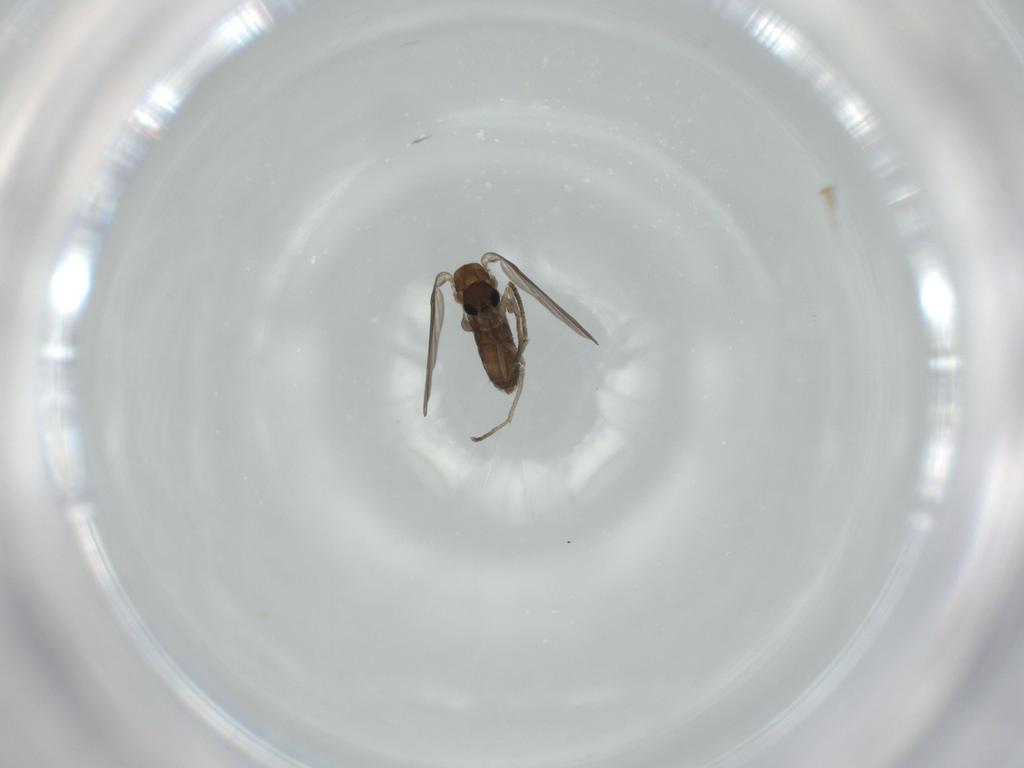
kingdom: Animalia
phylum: Arthropoda
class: Insecta
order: Diptera
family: Psychodidae
